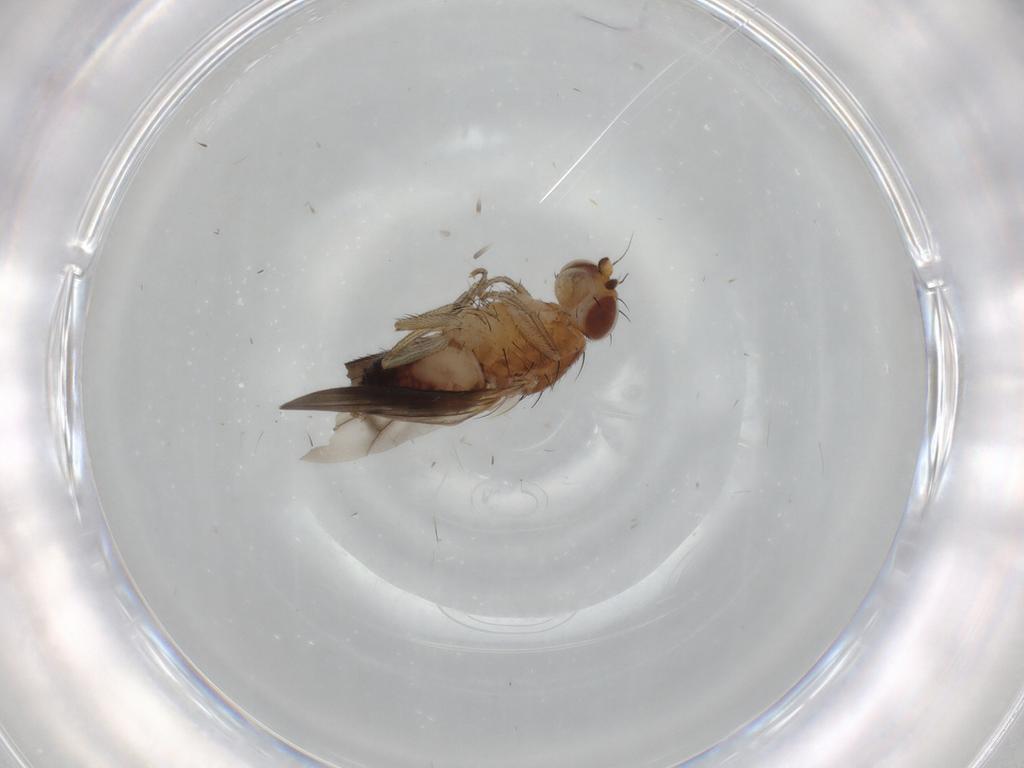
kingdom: Animalia
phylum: Arthropoda
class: Insecta
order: Diptera
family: Heleomyzidae
